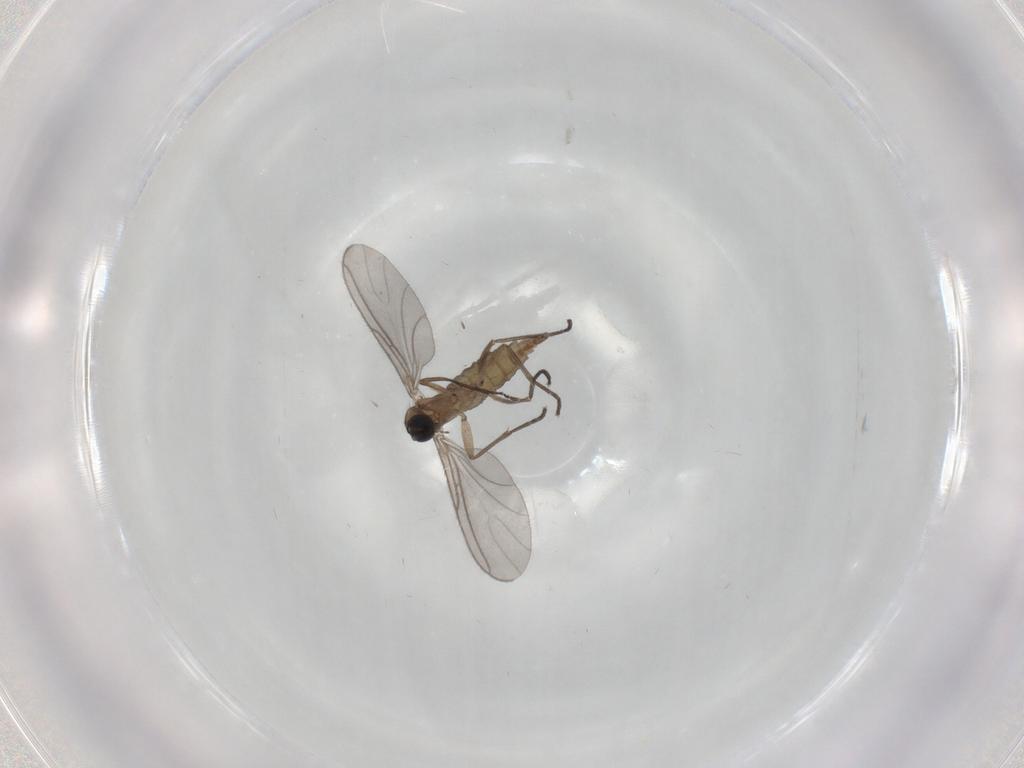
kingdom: Animalia
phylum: Arthropoda
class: Insecta
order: Diptera
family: Sciaridae
